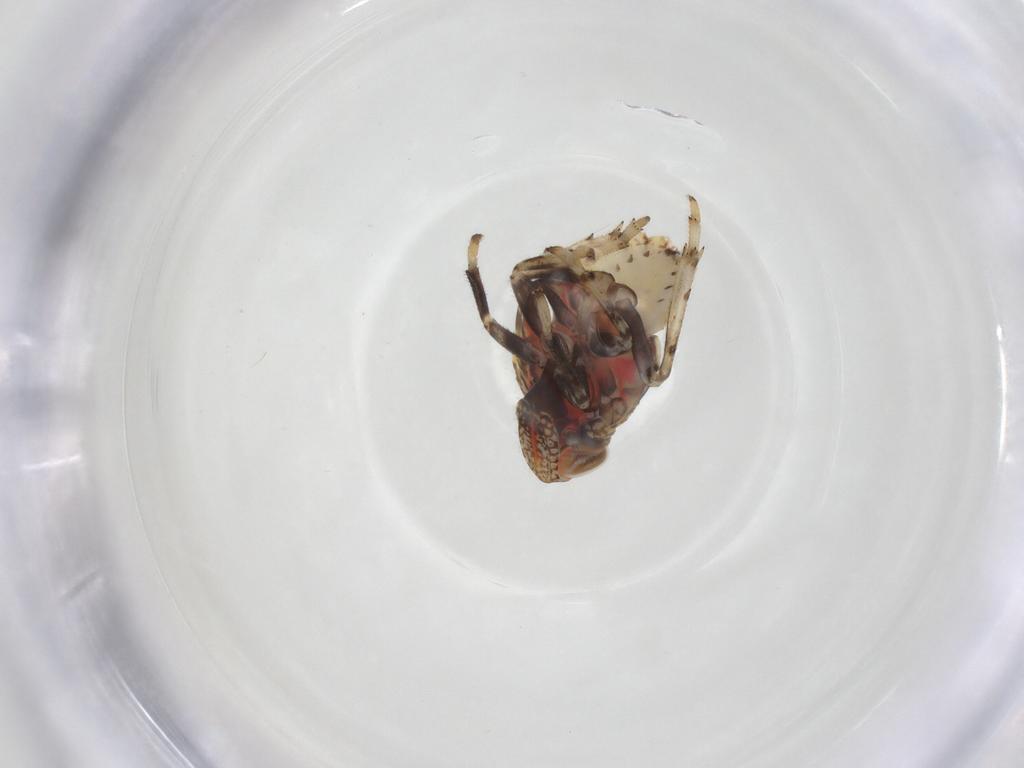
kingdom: Animalia
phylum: Arthropoda
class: Insecta
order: Hemiptera
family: Issidae
